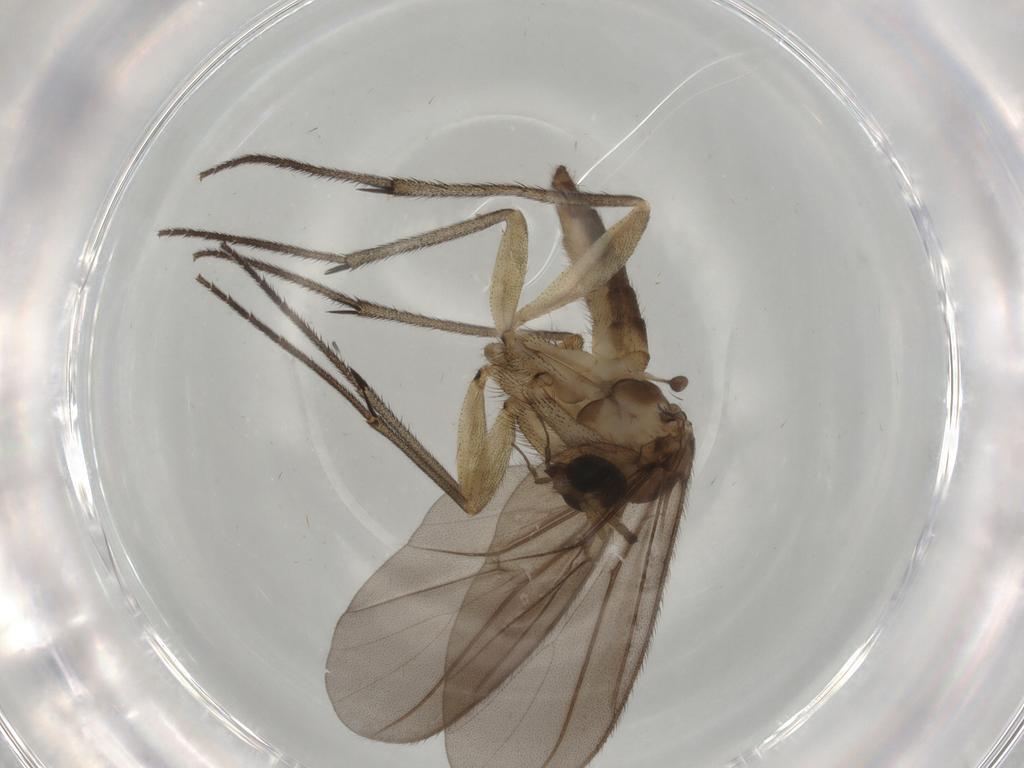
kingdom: Animalia
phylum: Arthropoda
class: Insecta
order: Diptera
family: Diadocidiidae
